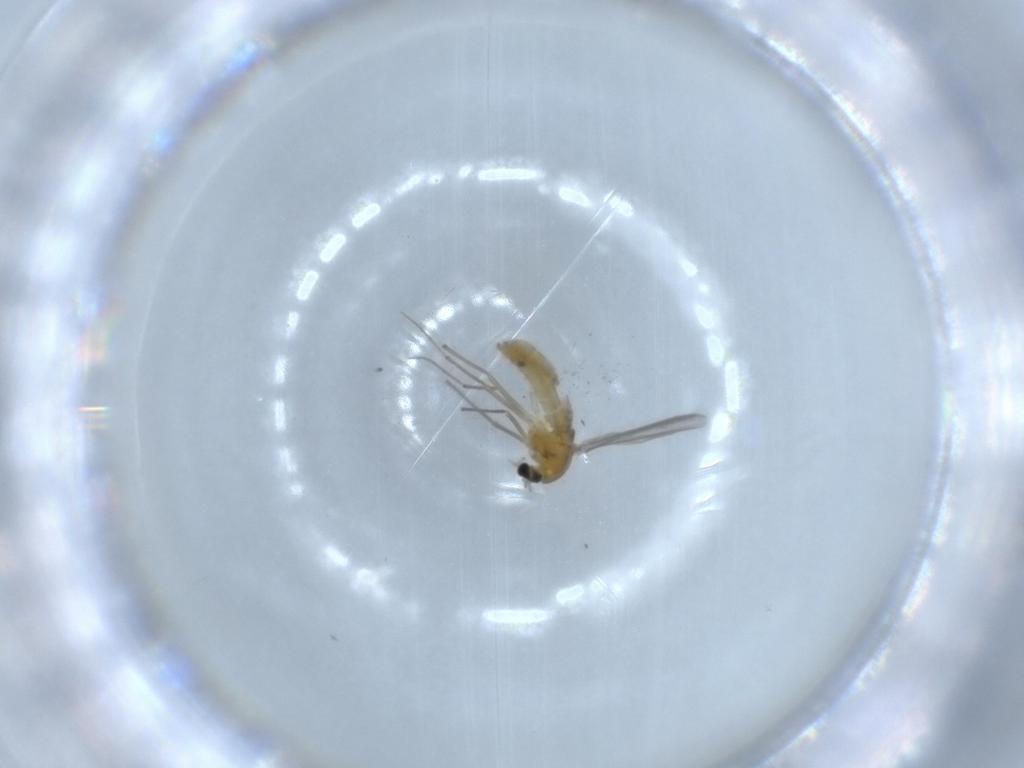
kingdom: Animalia
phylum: Arthropoda
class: Insecta
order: Diptera
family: Chironomidae
